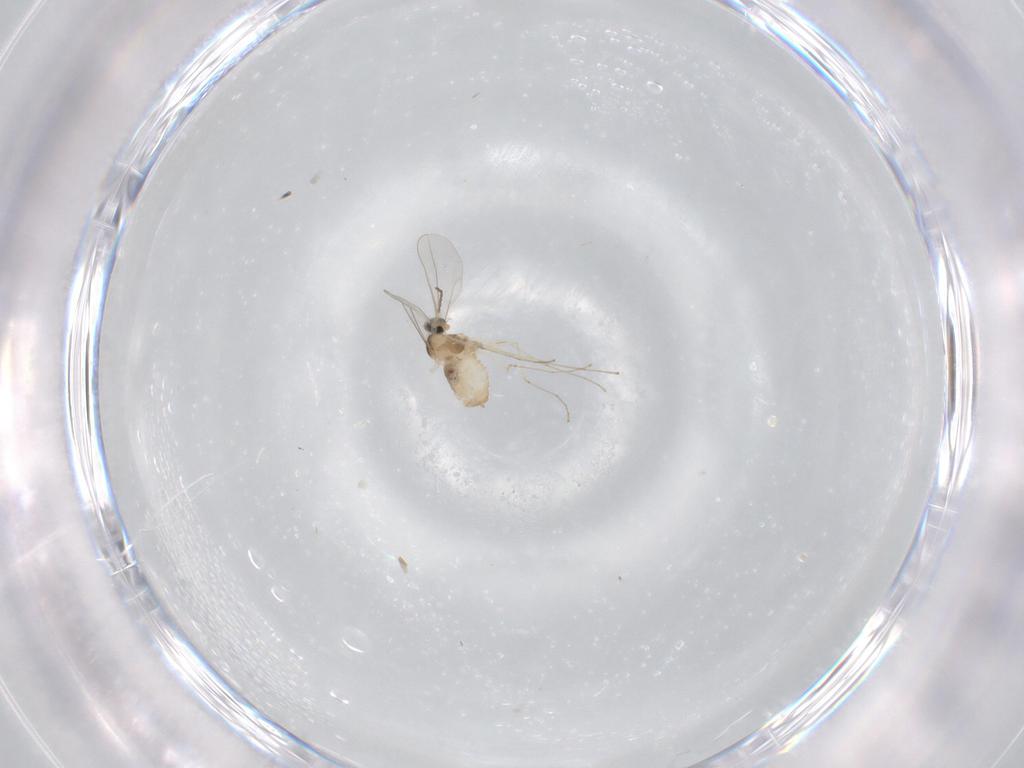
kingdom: Animalia
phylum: Arthropoda
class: Insecta
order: Diptera
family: Cecidomyiidae
